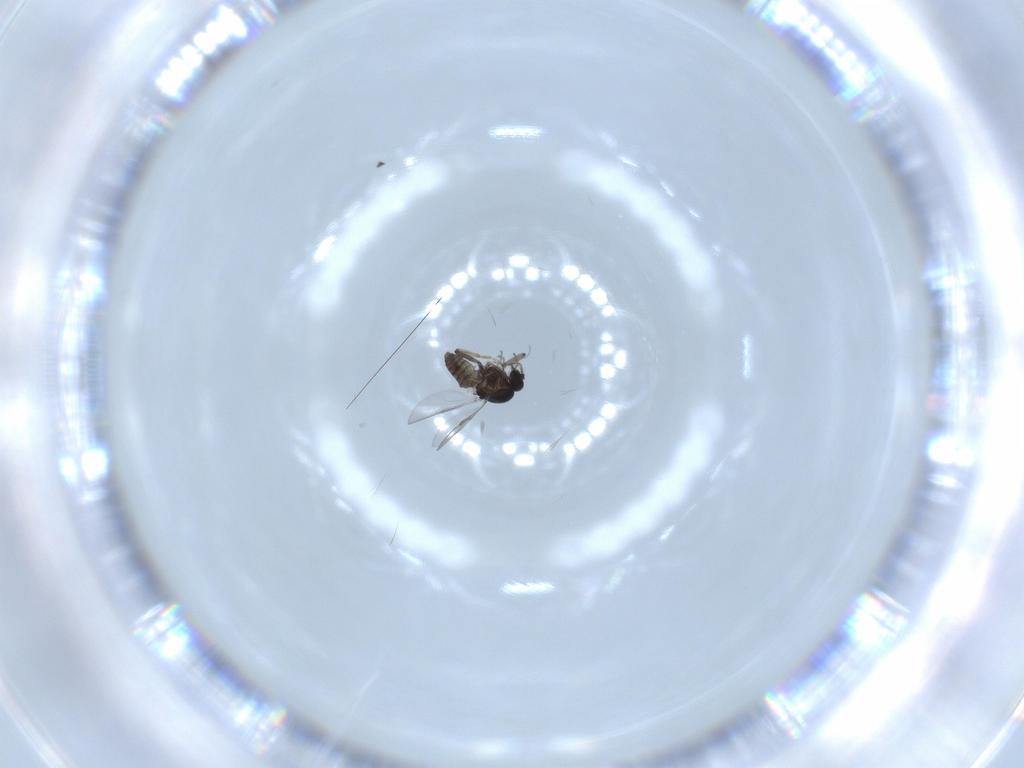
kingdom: Animalia
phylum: Arthropoda
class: Insecta
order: Diptera
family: Ceratopogonidae
